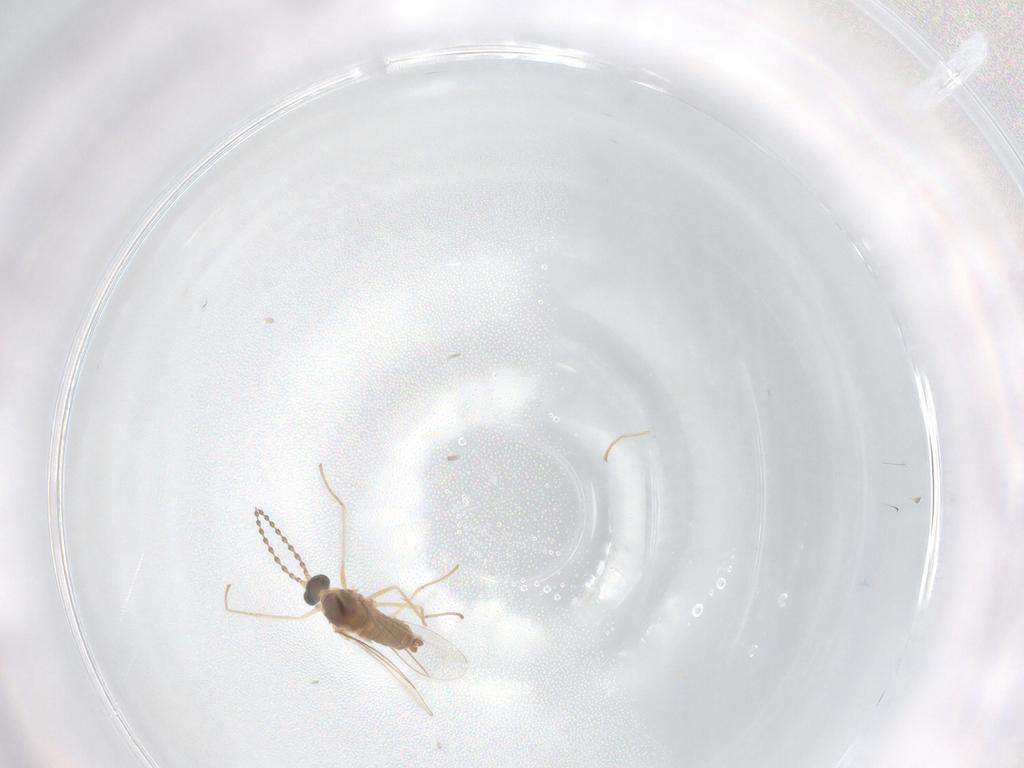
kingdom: Animalia
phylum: Arthropoda
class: Insecta
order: Diptera
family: Cecidomyiidae
